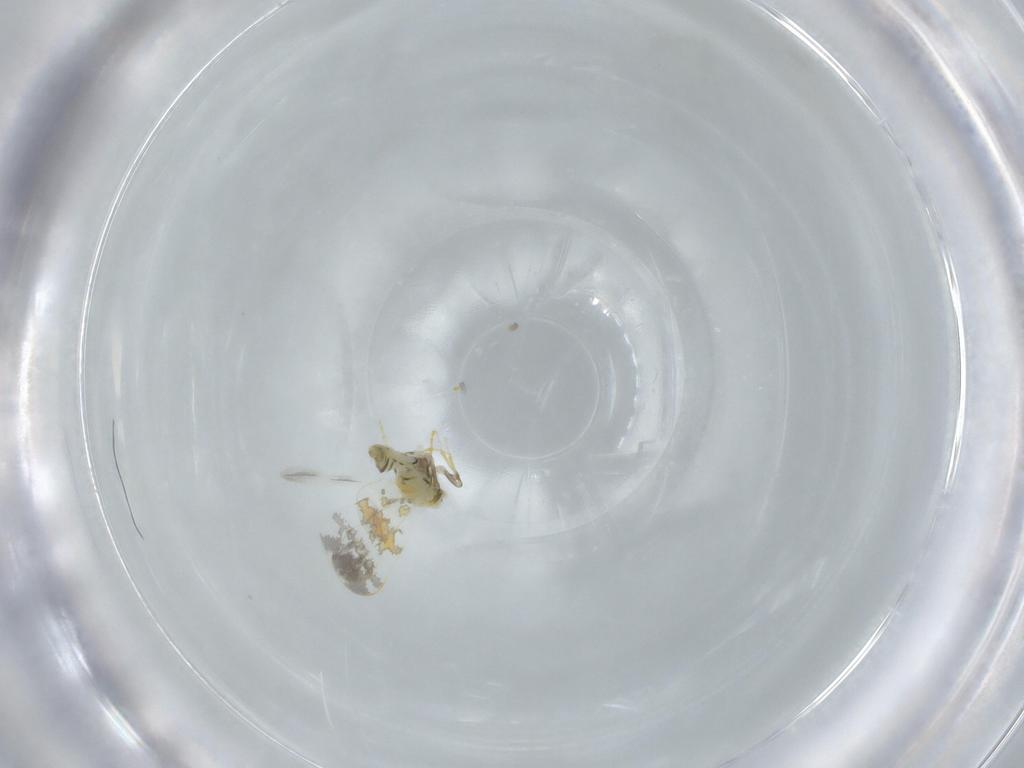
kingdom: Animalia
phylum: Arthropoda
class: Insecta
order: Hemiptera
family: Aleyrodidae
